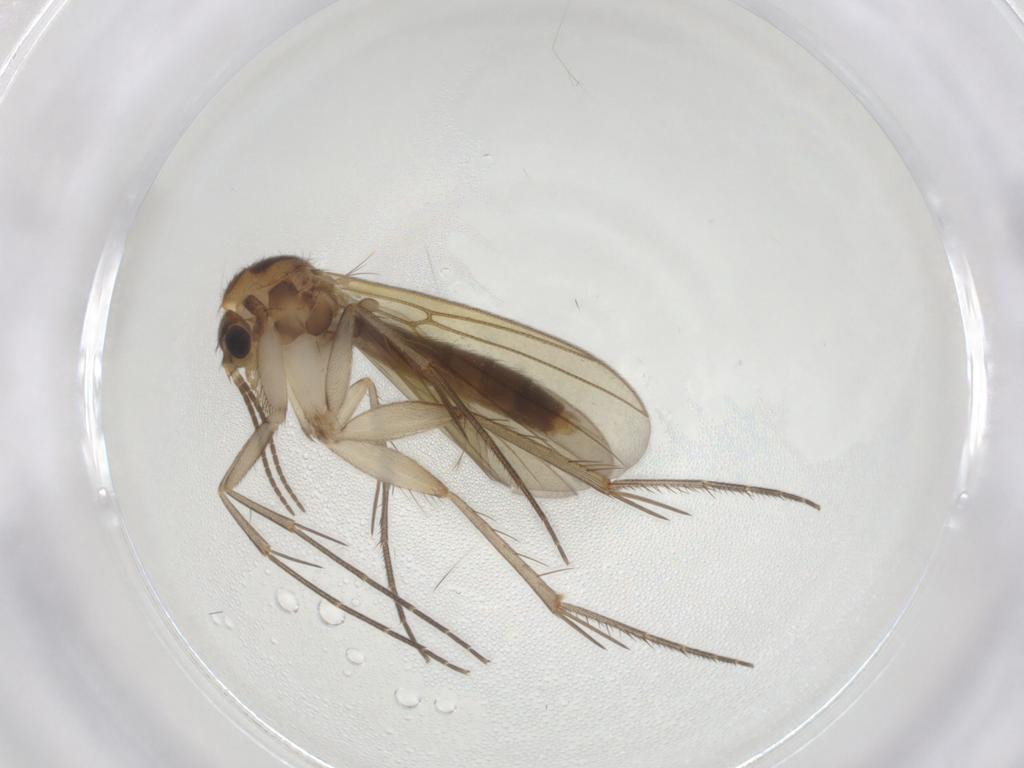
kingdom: Animalia
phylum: Arthropoda
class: Insecta
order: Diptera
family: Mycetophilidae
